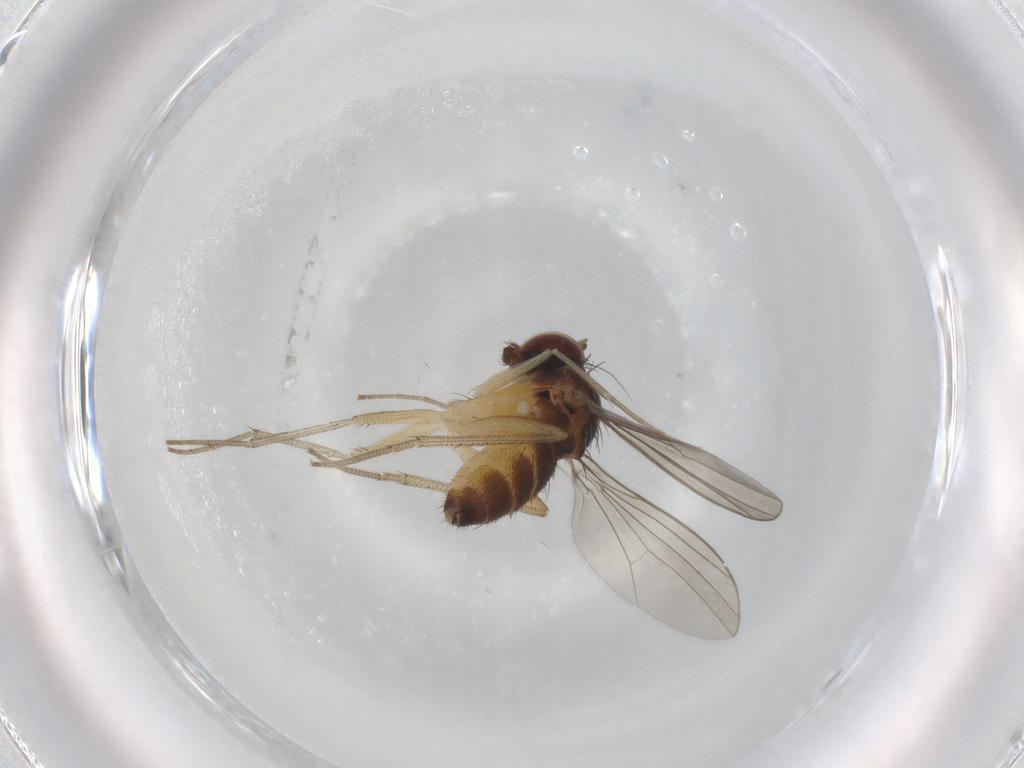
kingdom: Animalia
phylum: Arthropoda
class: Insecta
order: Diptera
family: Dolichopodidae
